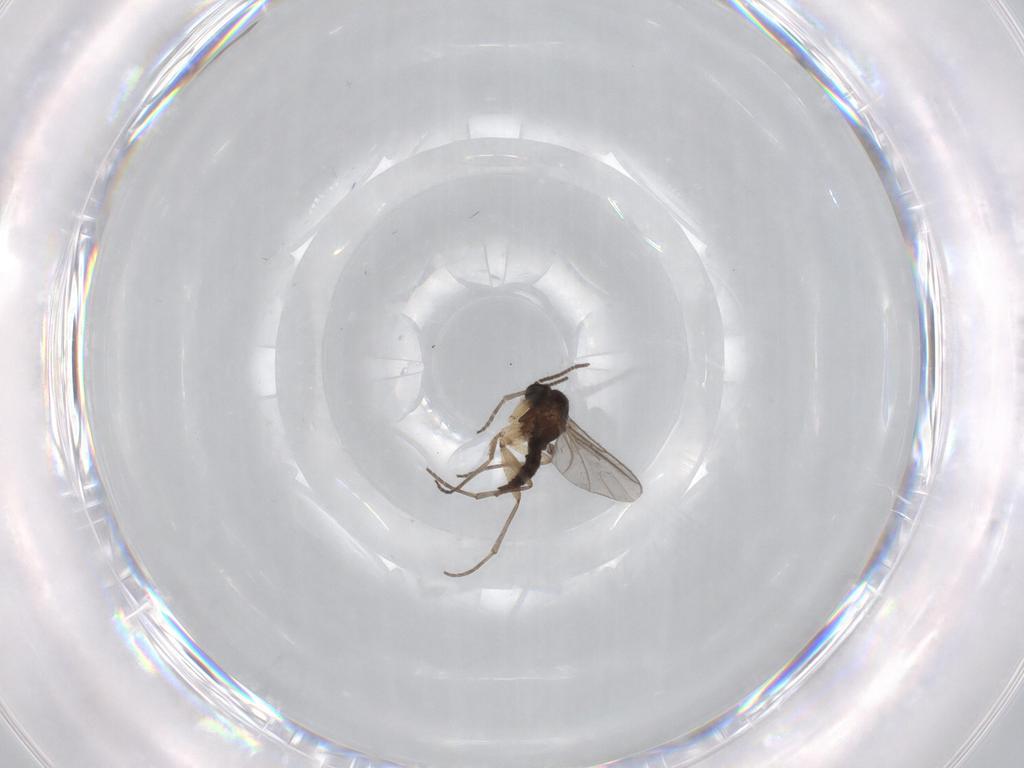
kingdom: Animalia
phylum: Arthropoda
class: Insecta
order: Diptera
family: Sciaridae
